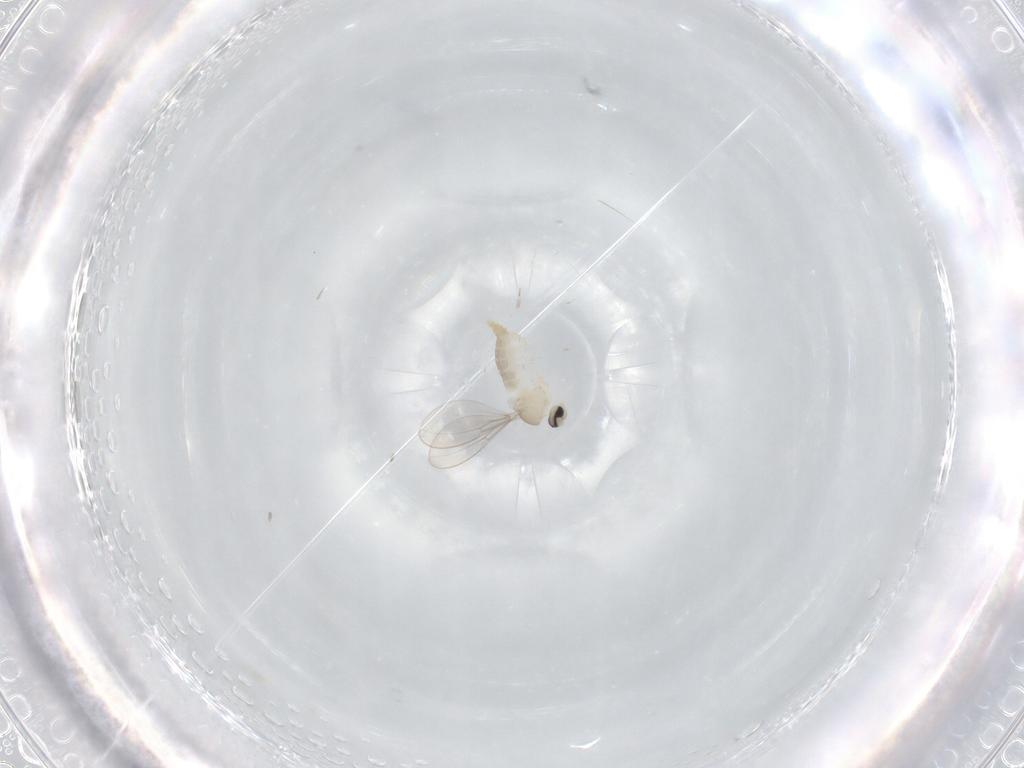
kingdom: Animalia
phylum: Arthropoda
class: Insecta
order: Diptera
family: Cecidomyiidae
